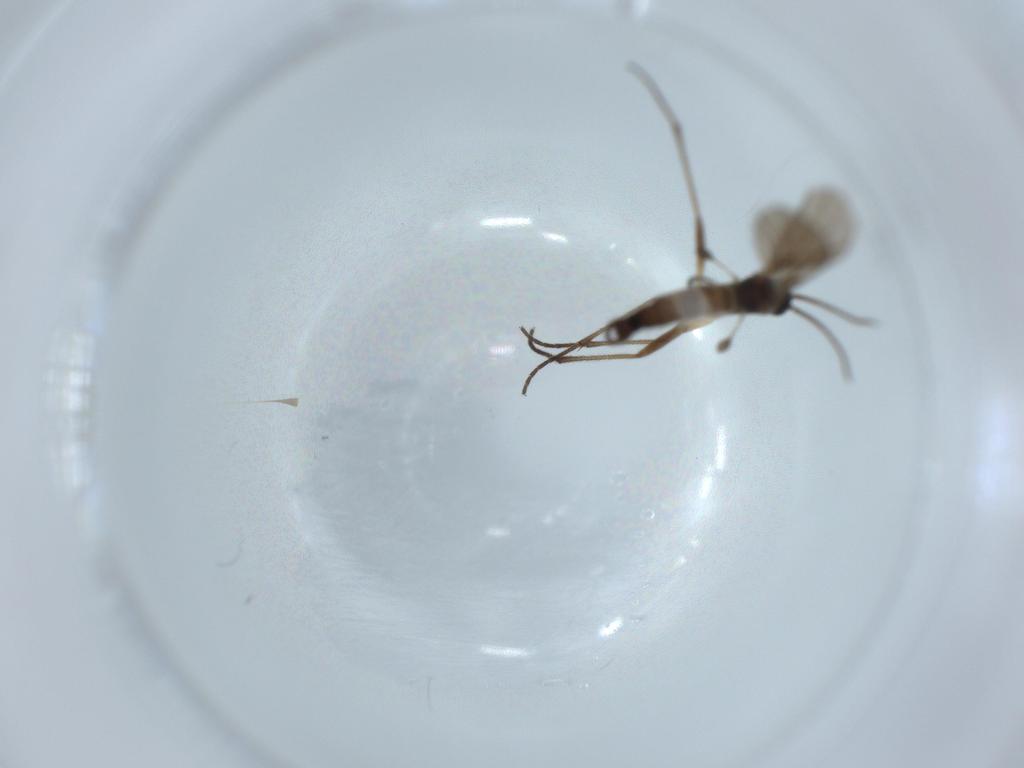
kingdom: Animalia
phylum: Arthropoda
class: Insecta
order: Diptera
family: Sciaridae
